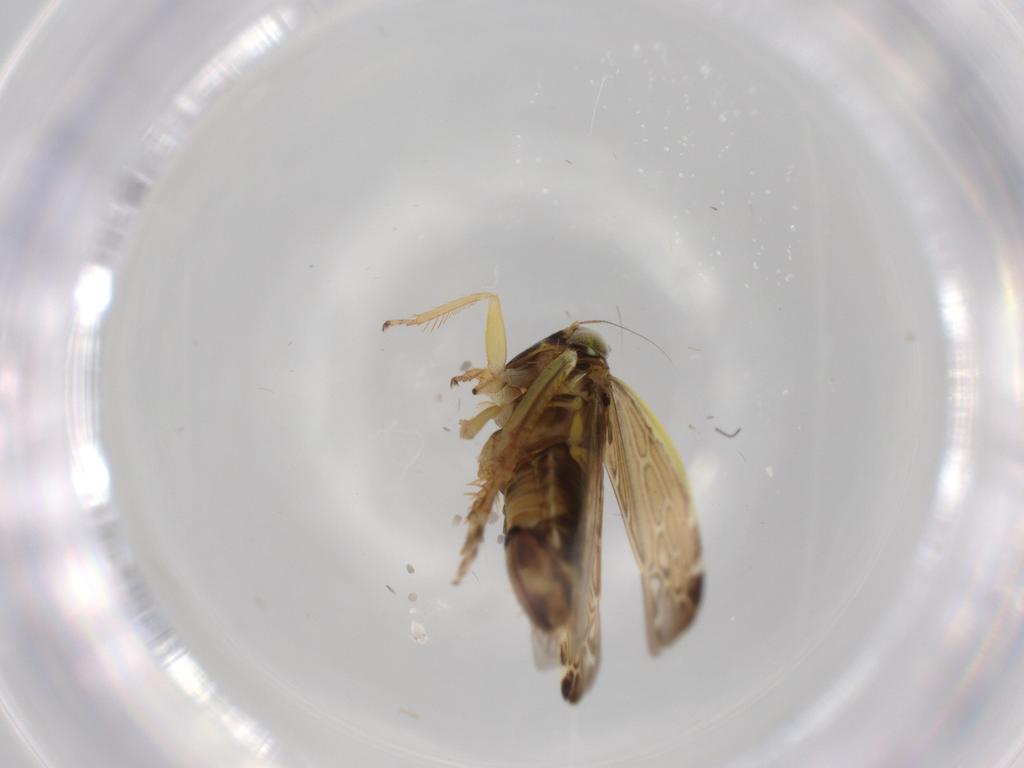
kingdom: Animalia
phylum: Arthropoda
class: Insecta
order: Hemiptera
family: Cicadellidae
